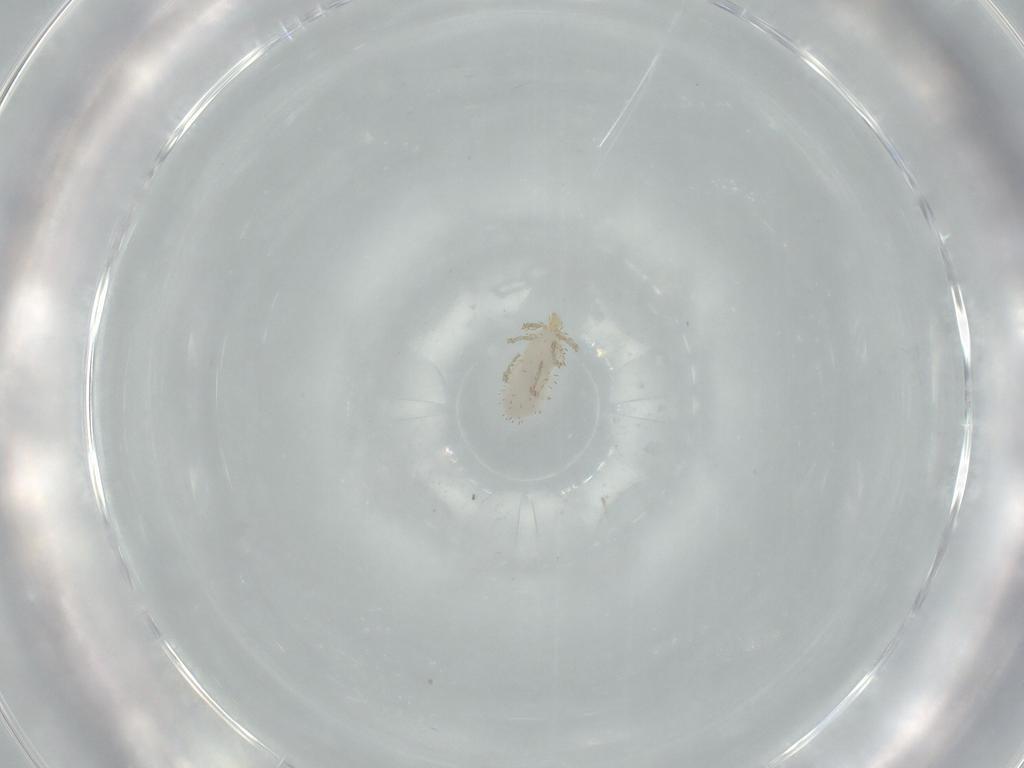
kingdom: Animalia
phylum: Arthropoda
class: Arachnida
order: Trombidiformes
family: Erythraeidae
